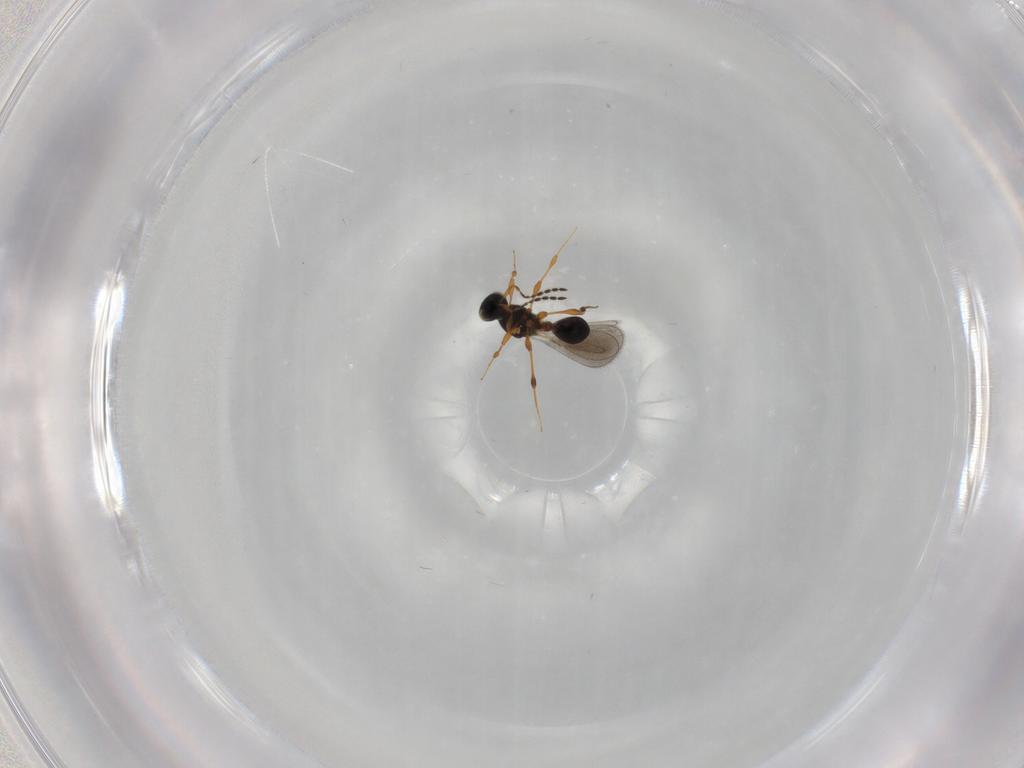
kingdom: Animalia
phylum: Arthropoda
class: Insecta
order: Hymenoptera
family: Platygastridae
